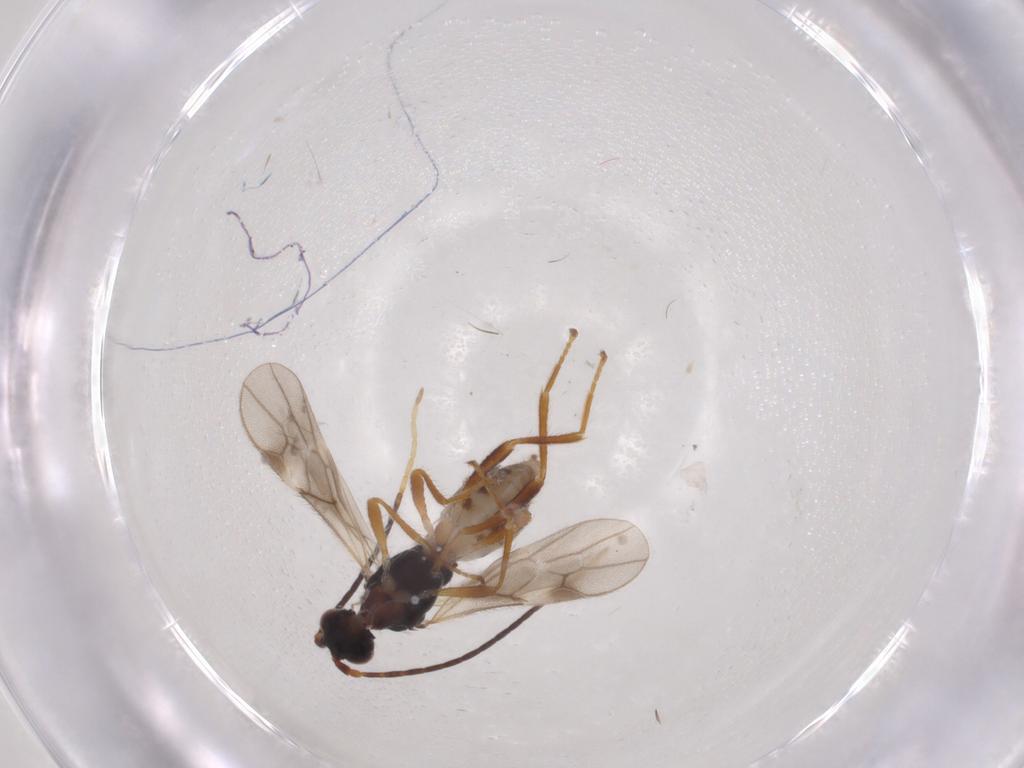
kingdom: Animalia
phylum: Arthropoda
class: Insecta
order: Hymenoptera
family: Braconidae
